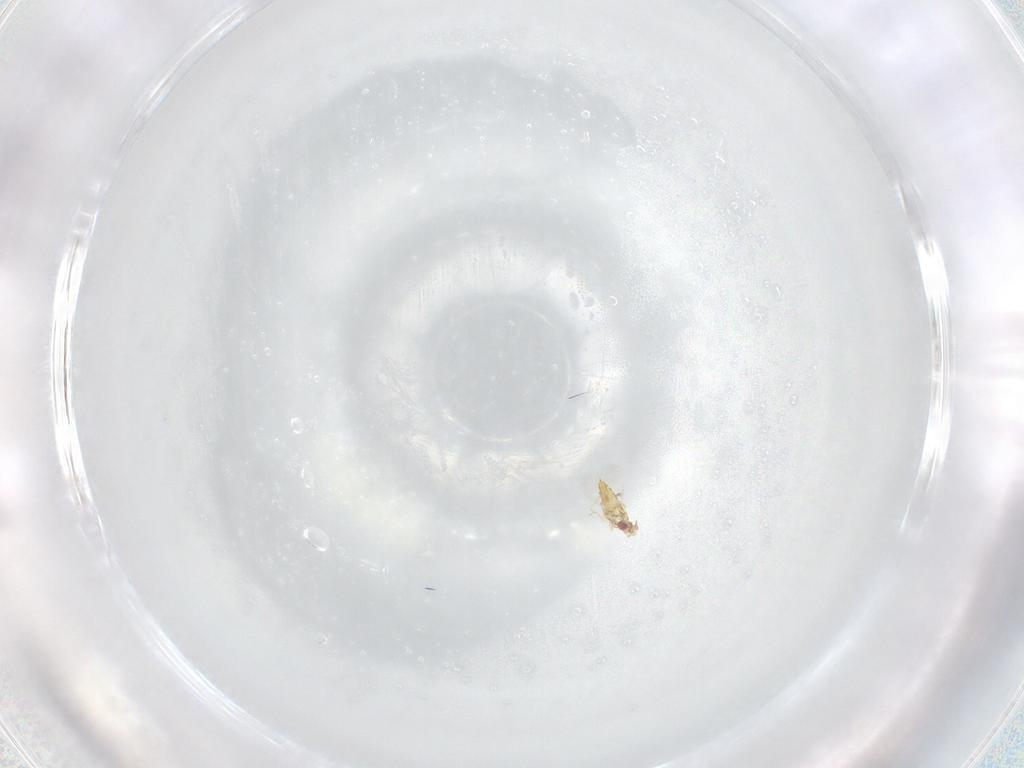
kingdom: Animalia
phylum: Arthropoda
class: Insecta
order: Hymenoptera
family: Trichogrammatidae
